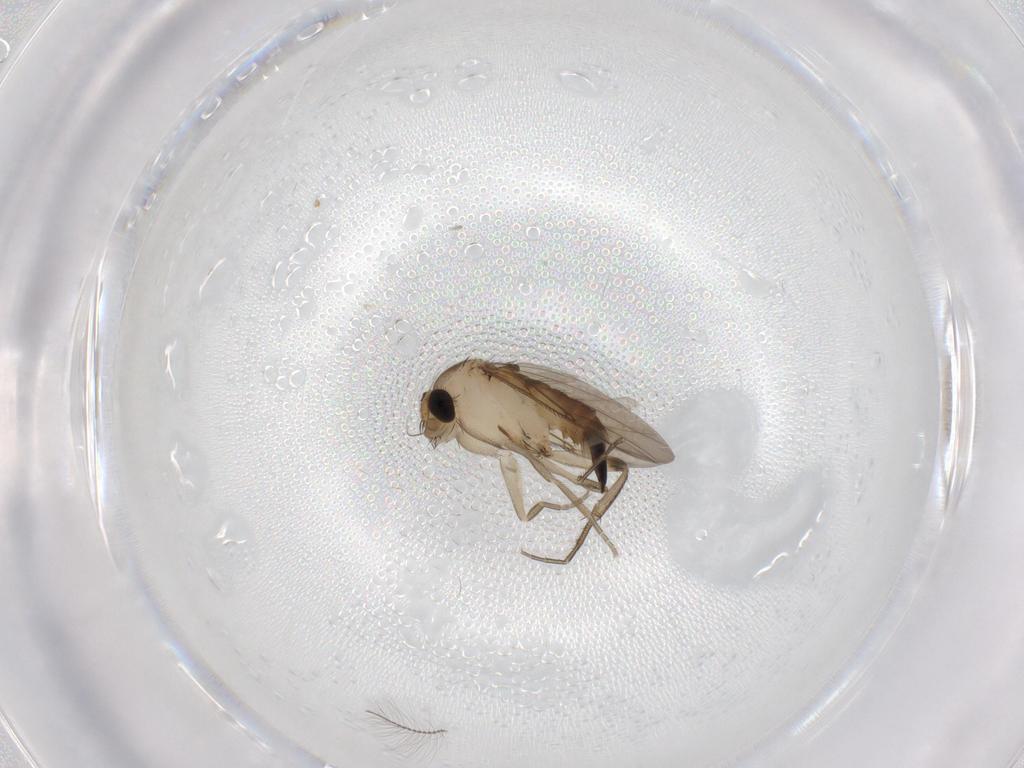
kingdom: Animalia
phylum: Arthropoda
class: Insecta
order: Diptera
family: Phoridae
